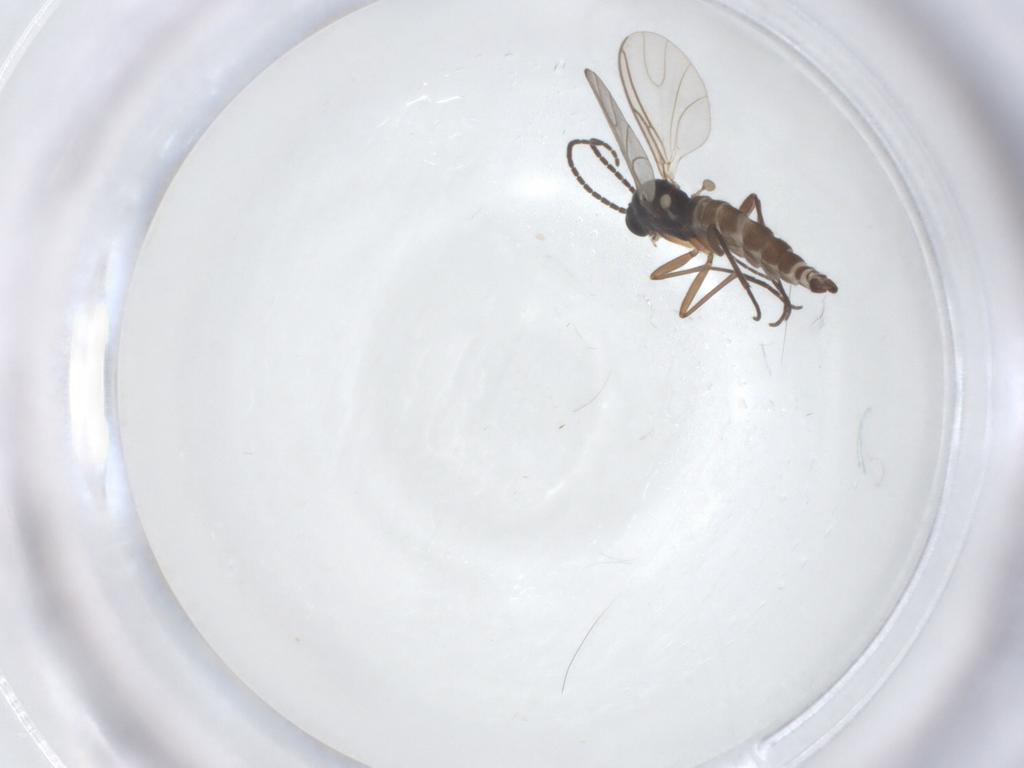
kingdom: Animalia
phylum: Arthropoda
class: Insecta
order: Diptera
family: Sciaridae
